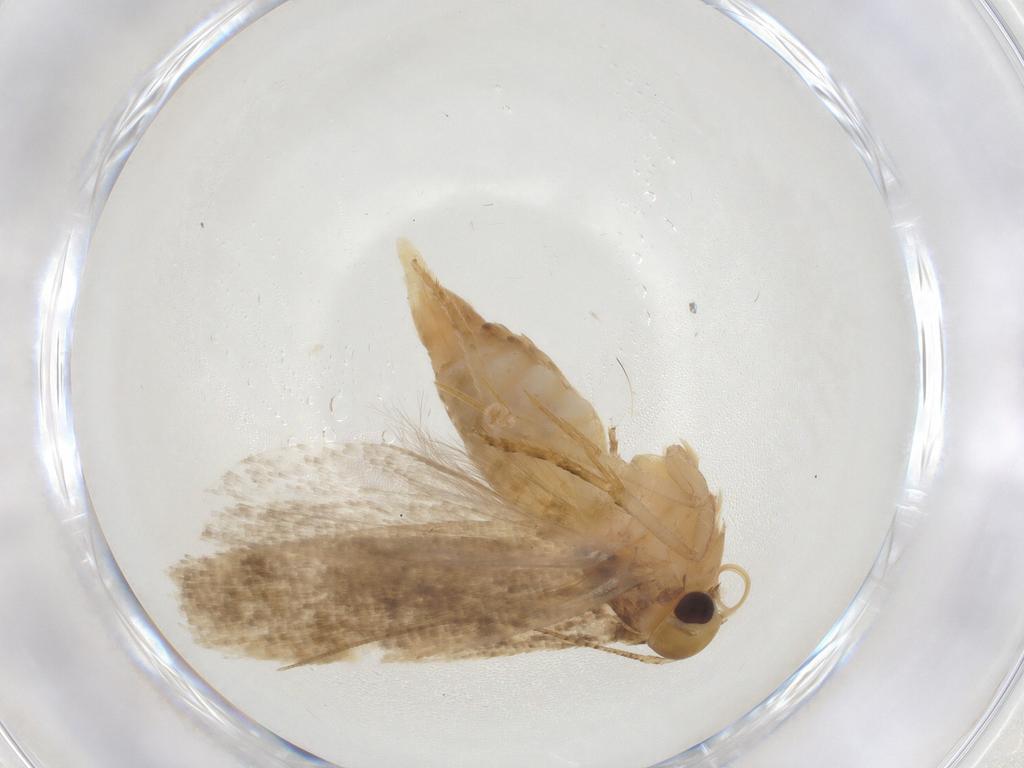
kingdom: Animalia
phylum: Arthropoda
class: Insecta
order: Lepidoptera
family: Gelechiidae
